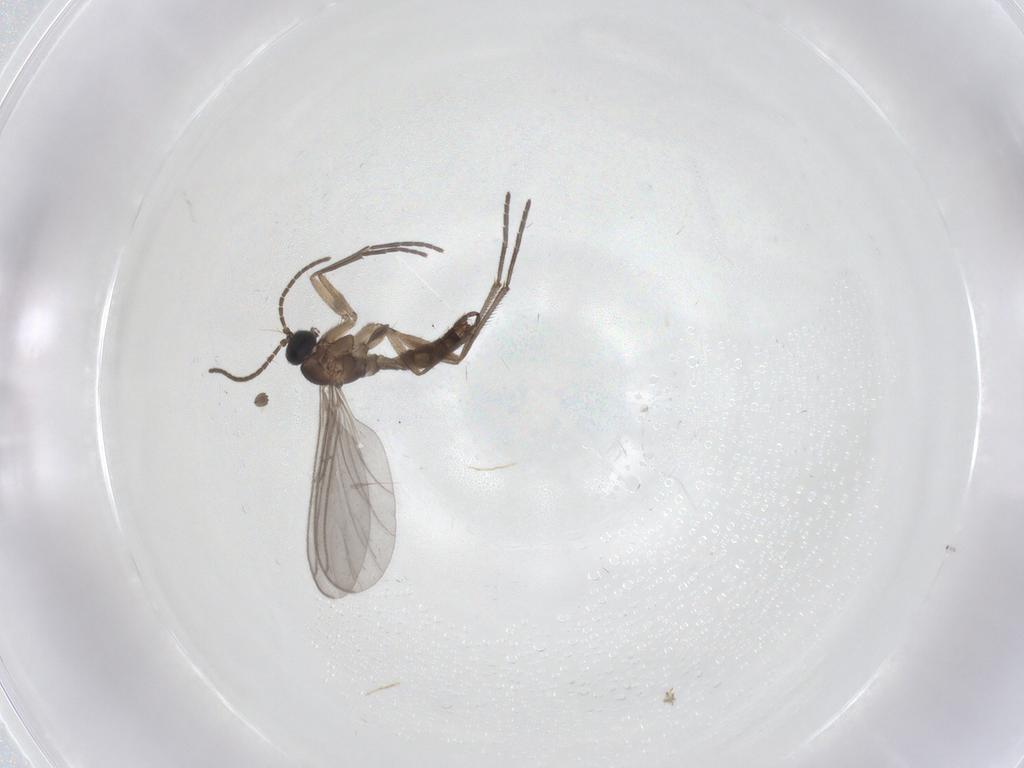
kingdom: Animalia
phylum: Arthropoda
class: Insecta
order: Diptera
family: Sciaridae
